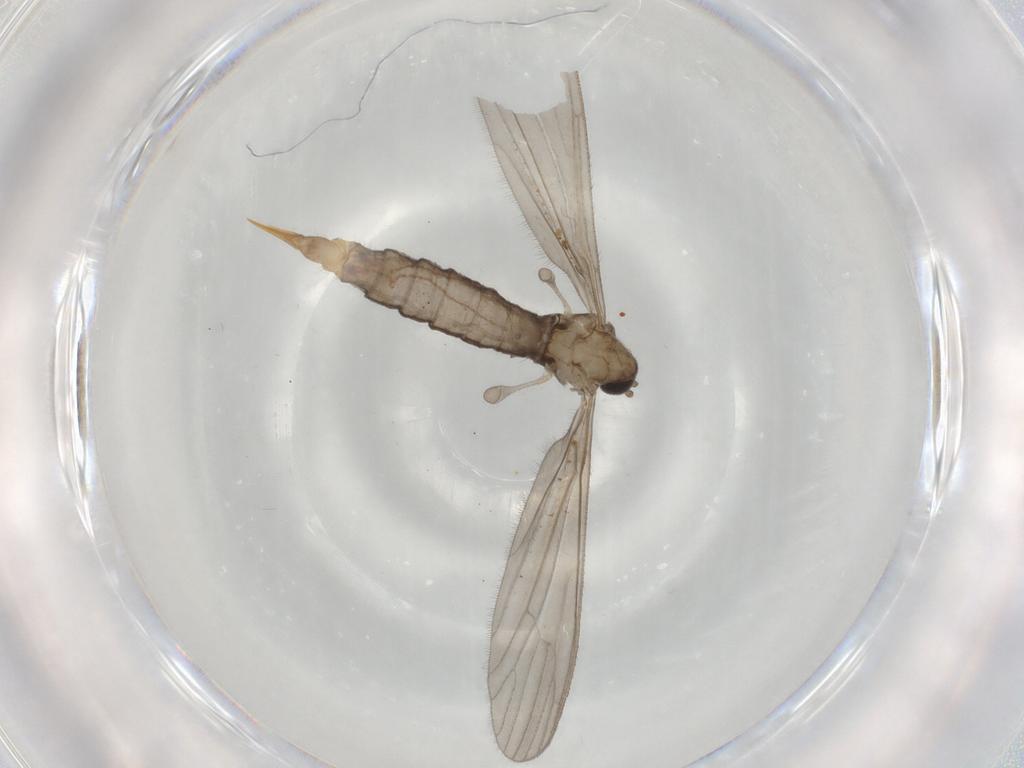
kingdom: Animalia
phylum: Arthropoda
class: Insecta
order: Diptera
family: Limoniidae
